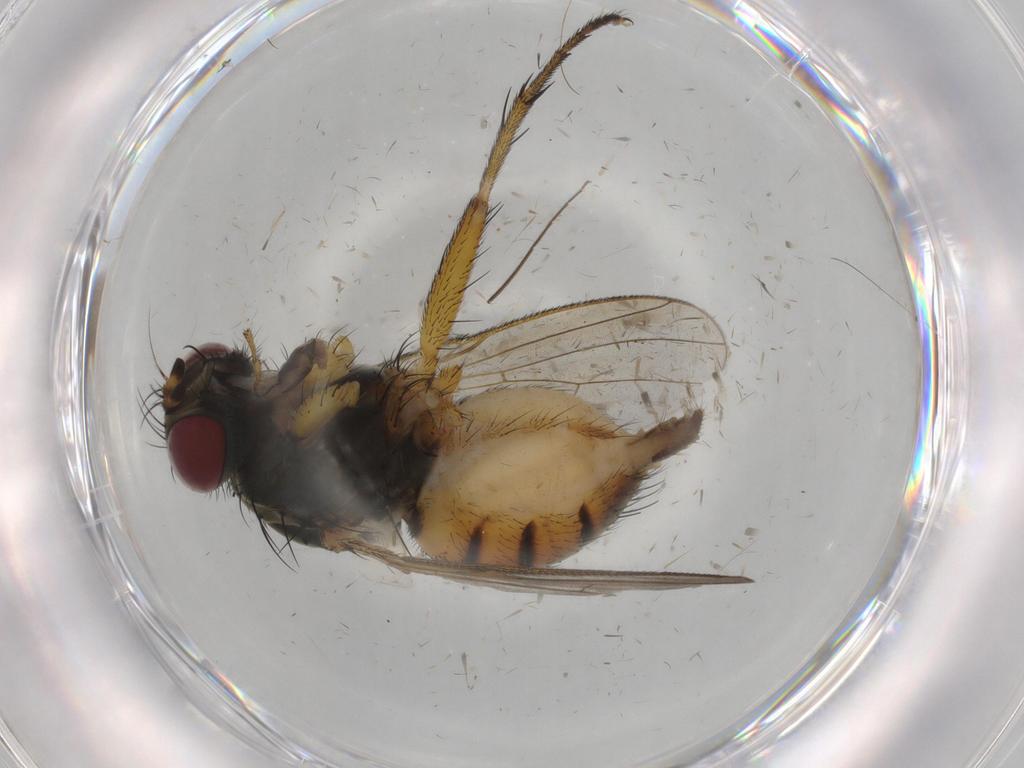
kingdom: Animalia
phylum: Arthropoda
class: Insecta
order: Diptera
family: Muscidae
